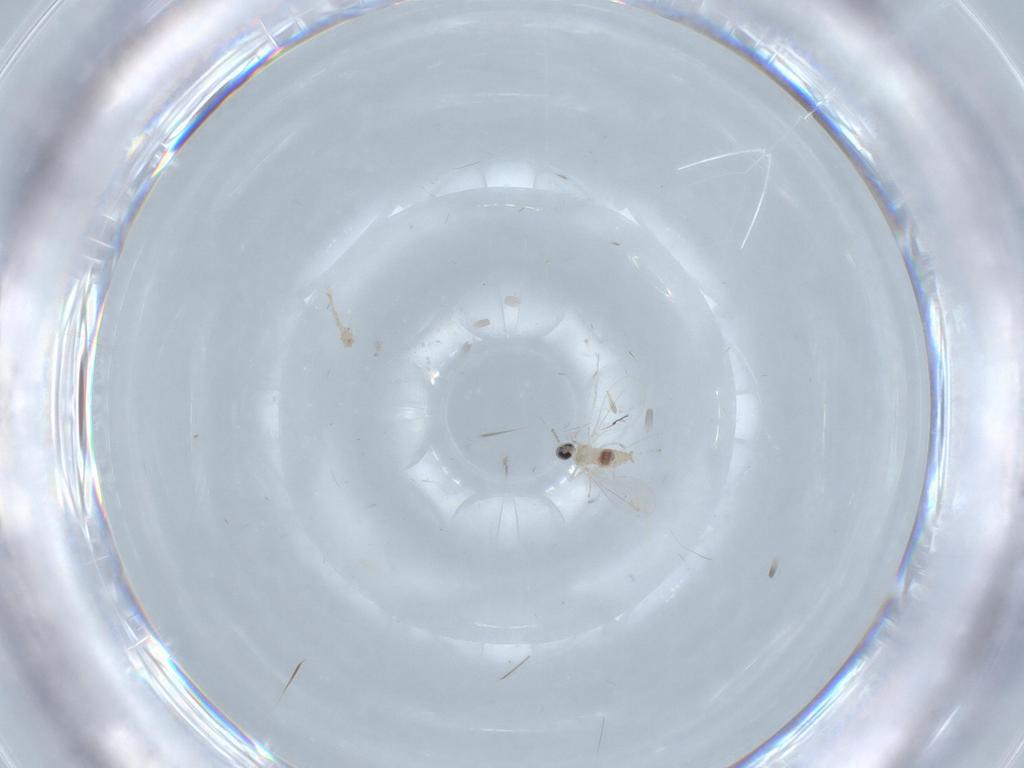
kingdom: Animalia
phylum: Arthropoda
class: Insecta
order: Diptera
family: Cecidomyiidae
